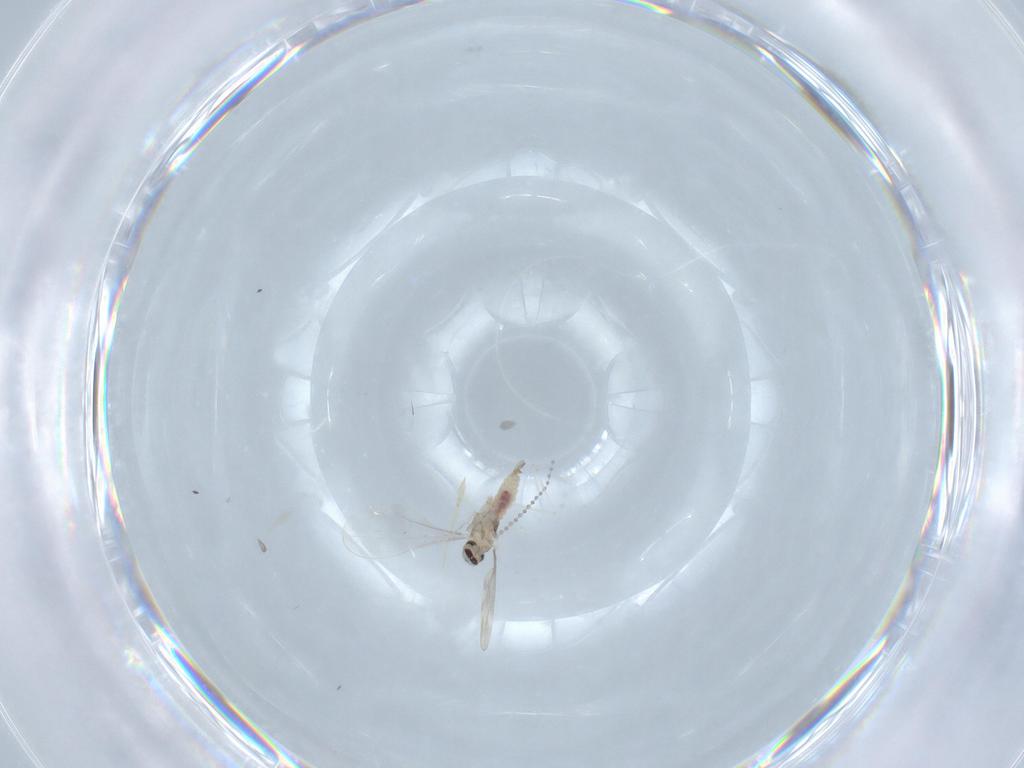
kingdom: Animalia
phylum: Arthropoda
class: Insecta
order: Diptera
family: Cecidomyiidae
